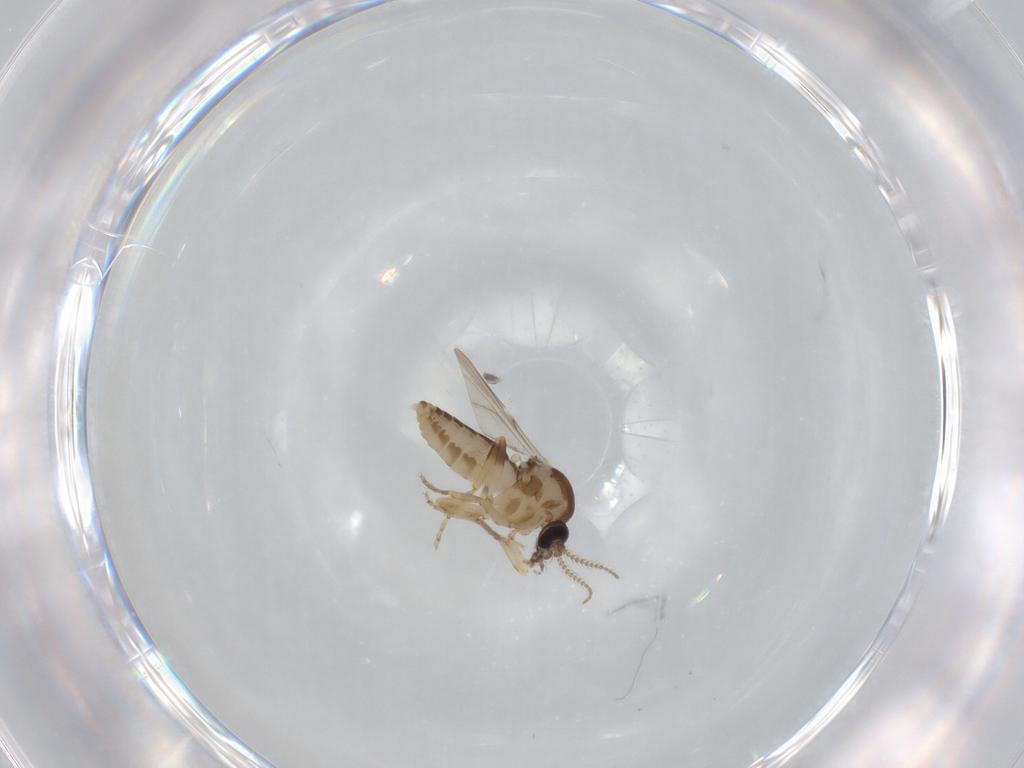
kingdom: Animalia
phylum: Arthropoda
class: Insecta
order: Diptera
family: Ceratopogonidae
